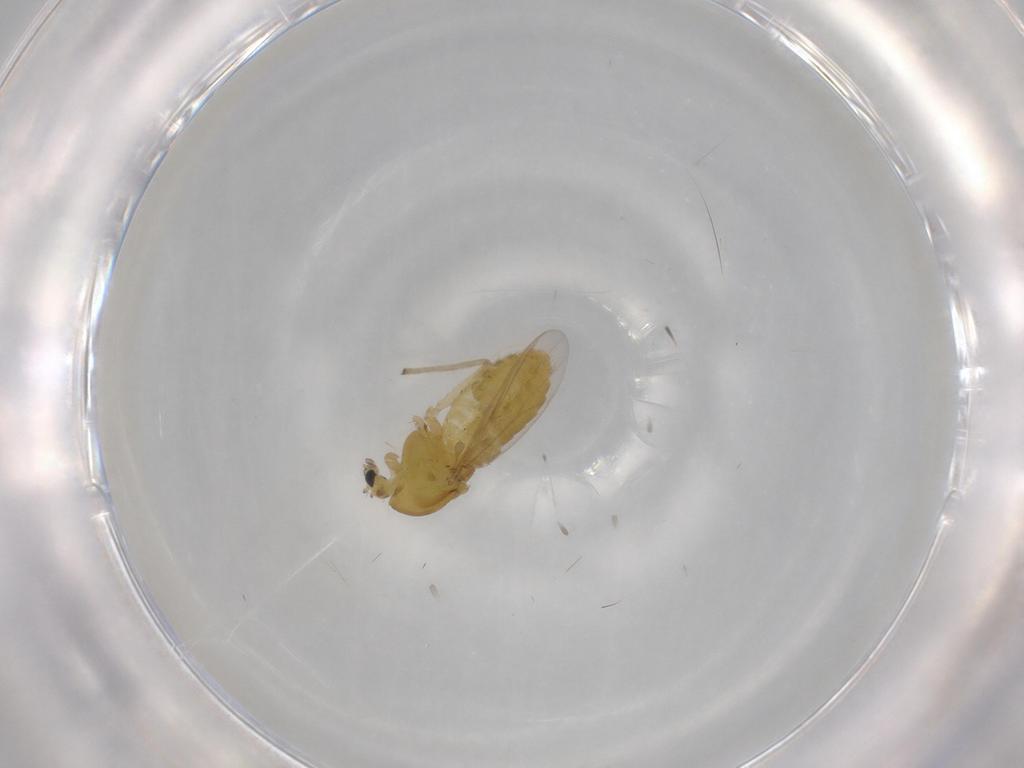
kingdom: Animalia
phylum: Arthropoda
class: Insecta
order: Diptera
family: Chironomidae
